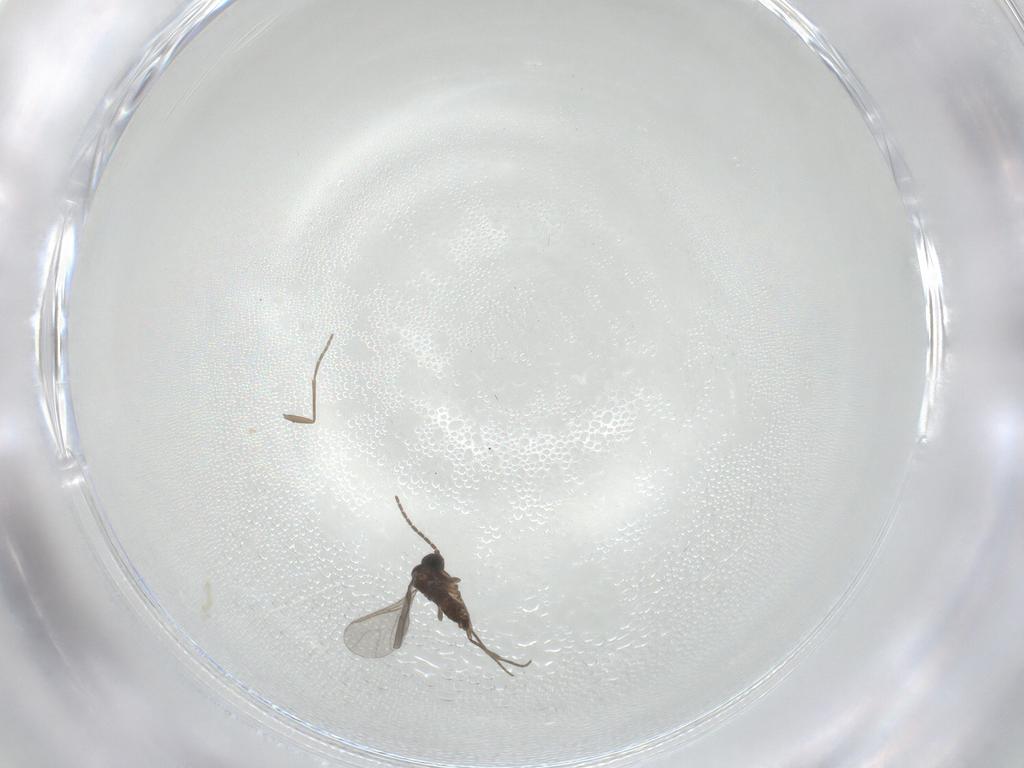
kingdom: Animalia
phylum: Arthropoda
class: Insecta
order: Diptera
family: Sciaridae
